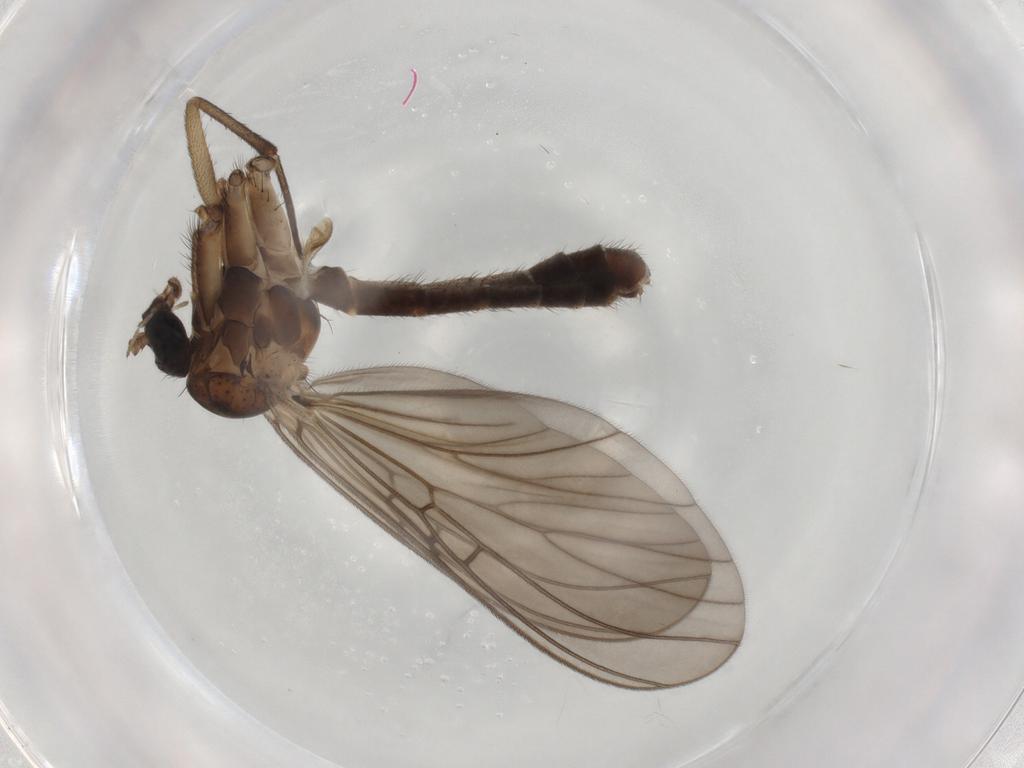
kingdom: Animalia
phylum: Arthropoda
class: Insecta
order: Diptera
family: Mycetophilidae
